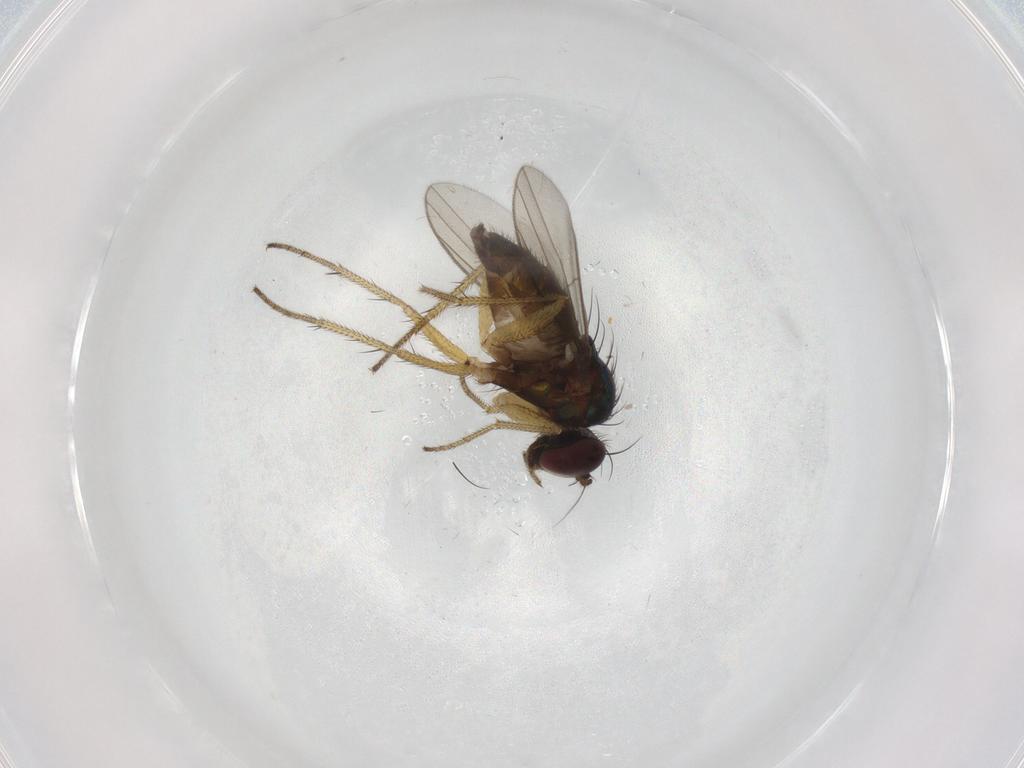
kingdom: Animalia
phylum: Arthropoda
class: Insecta
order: Diptera
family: Dolichopodidae
